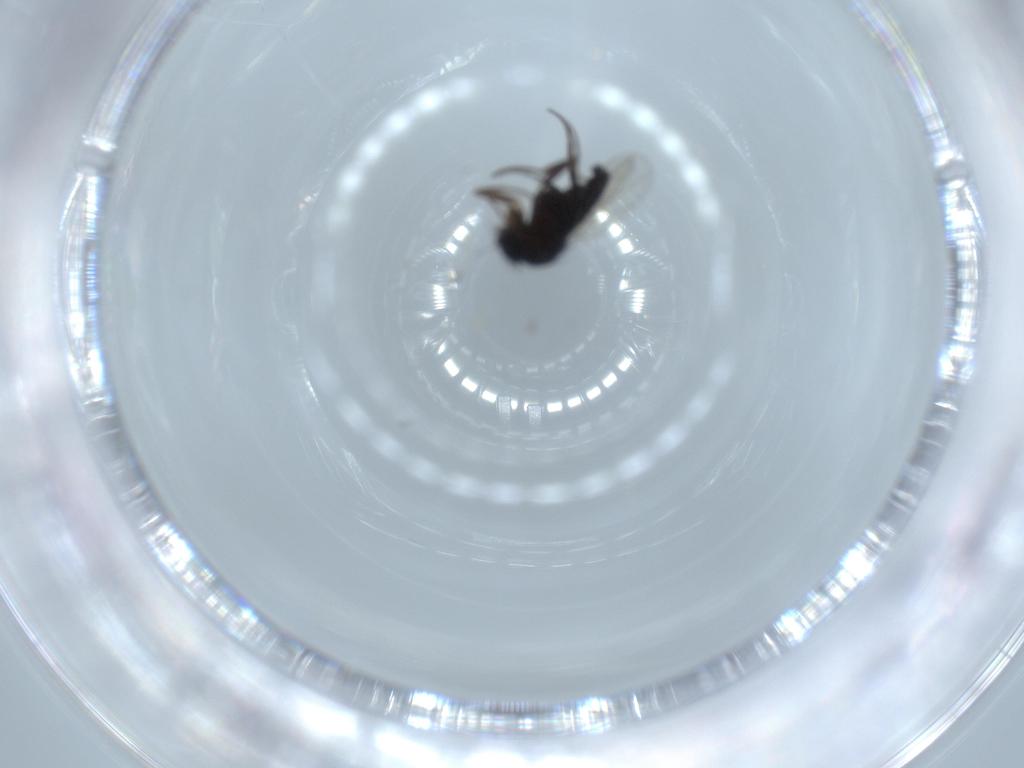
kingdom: Animalia
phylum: Arthropoda
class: Insecta
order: Diptera
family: Phoridae
